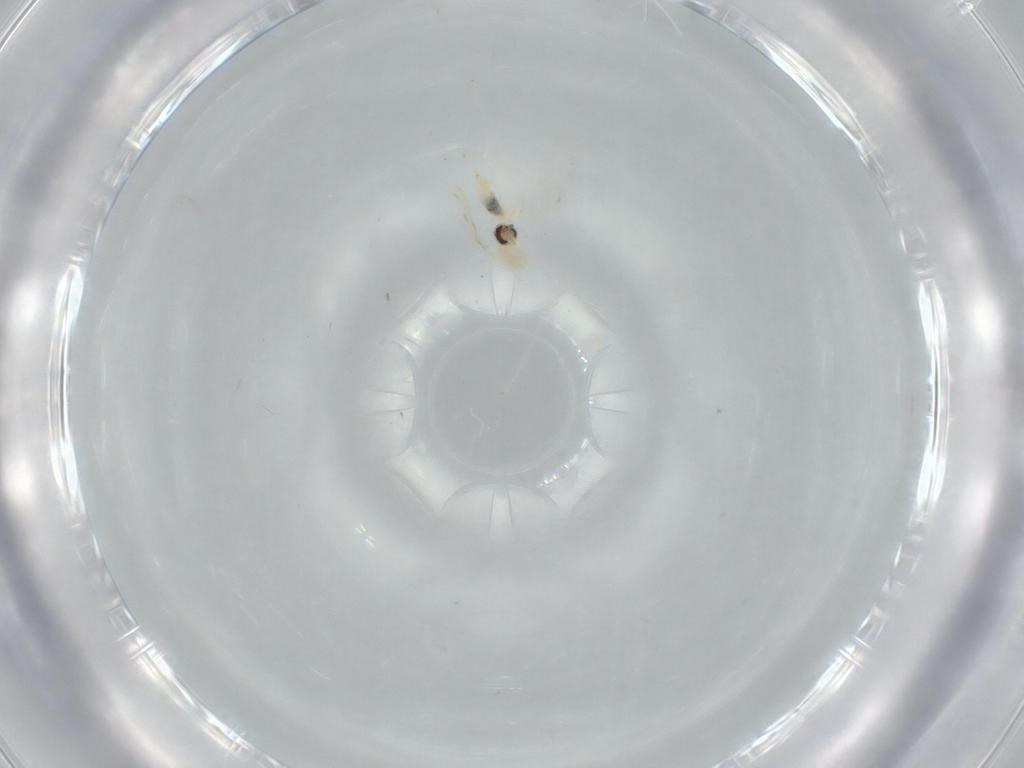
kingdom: Animalia
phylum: Arthropoda
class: Insecta
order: Diptera
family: Cecidomyiidae
